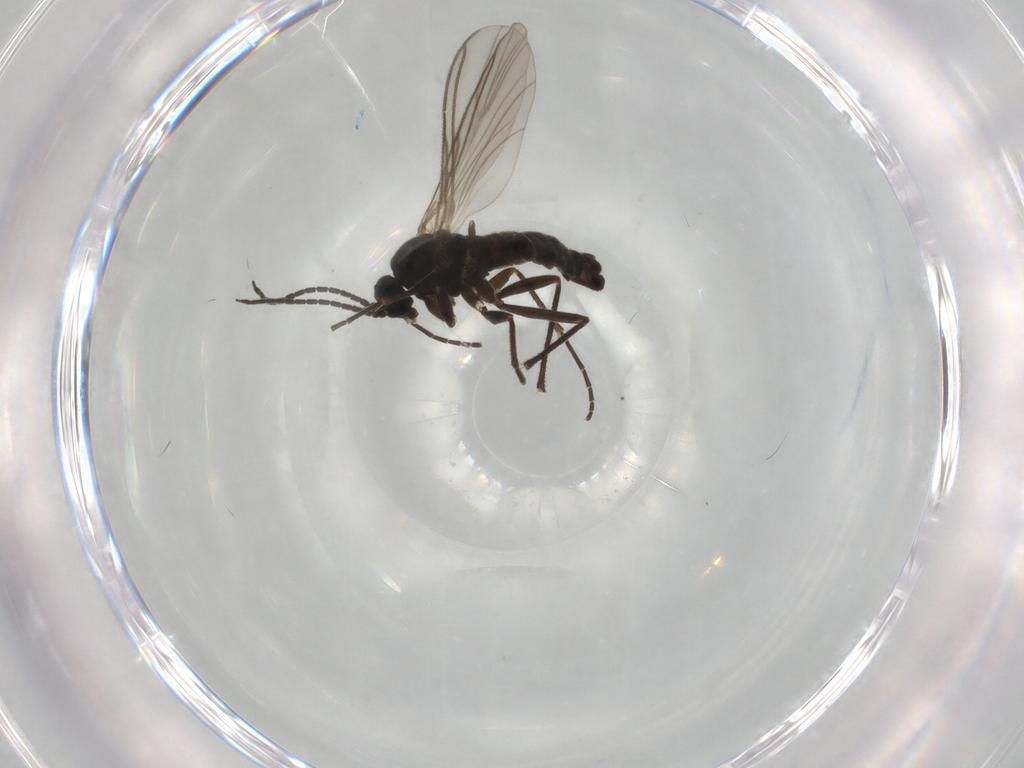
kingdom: Animalia
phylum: Arthropoda
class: Insecta
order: Diptera
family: Sciaridae
